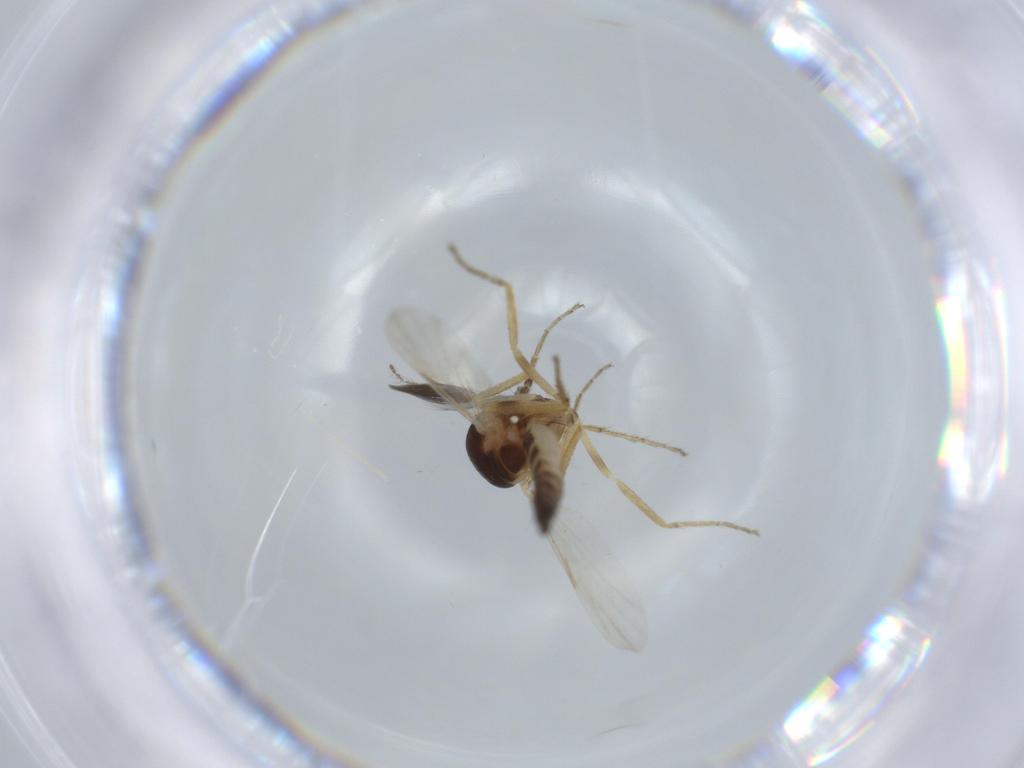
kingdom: Animalia
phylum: Arthropoda
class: Insecta
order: Diptera
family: Ceratopogonidae
